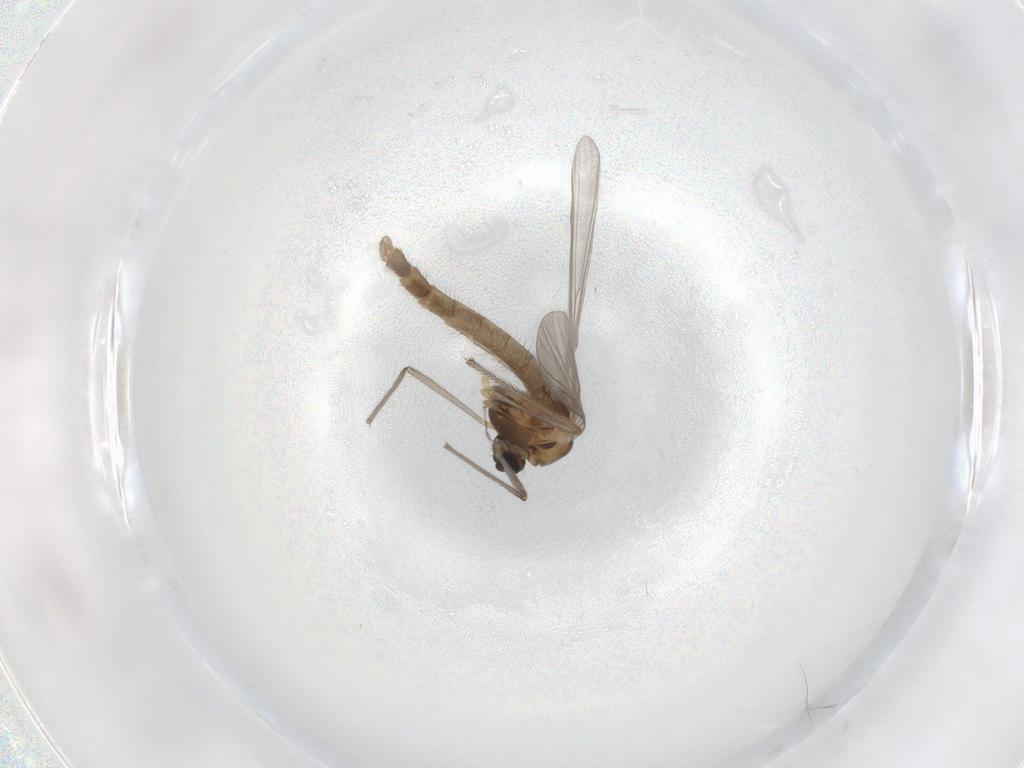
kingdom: Animalia
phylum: Arthropoda
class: Insecta
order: Diptera
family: Chironomidae
